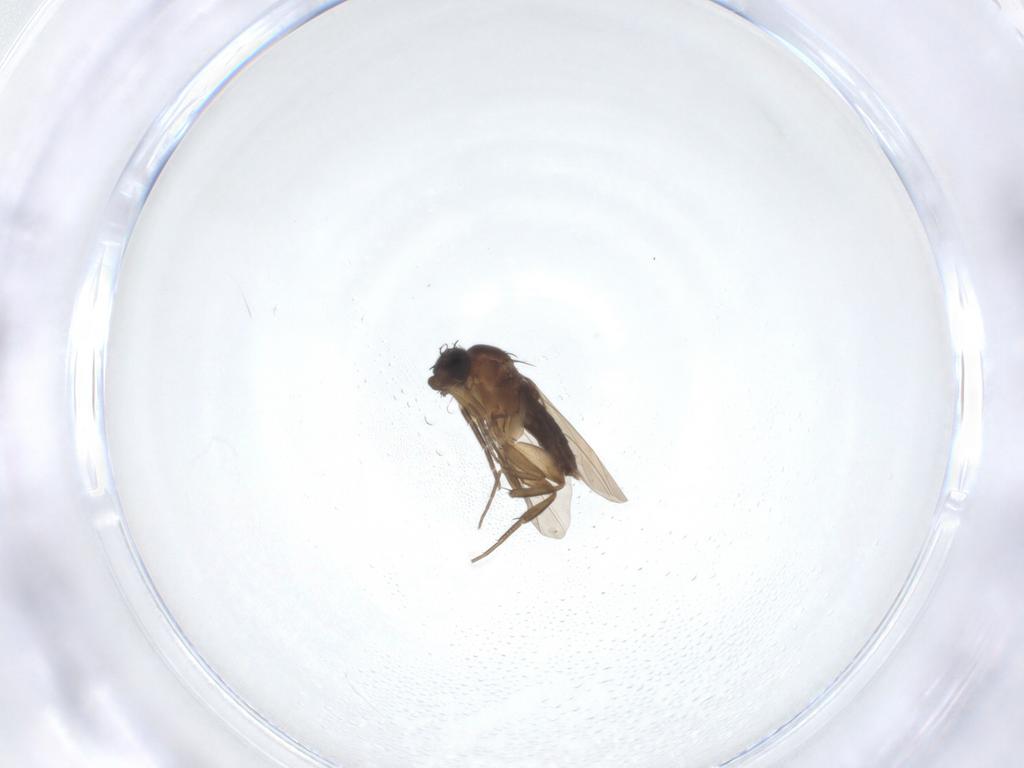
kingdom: Animalia
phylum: Arthropoda
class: Insecta
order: Diptera
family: Phoridae
